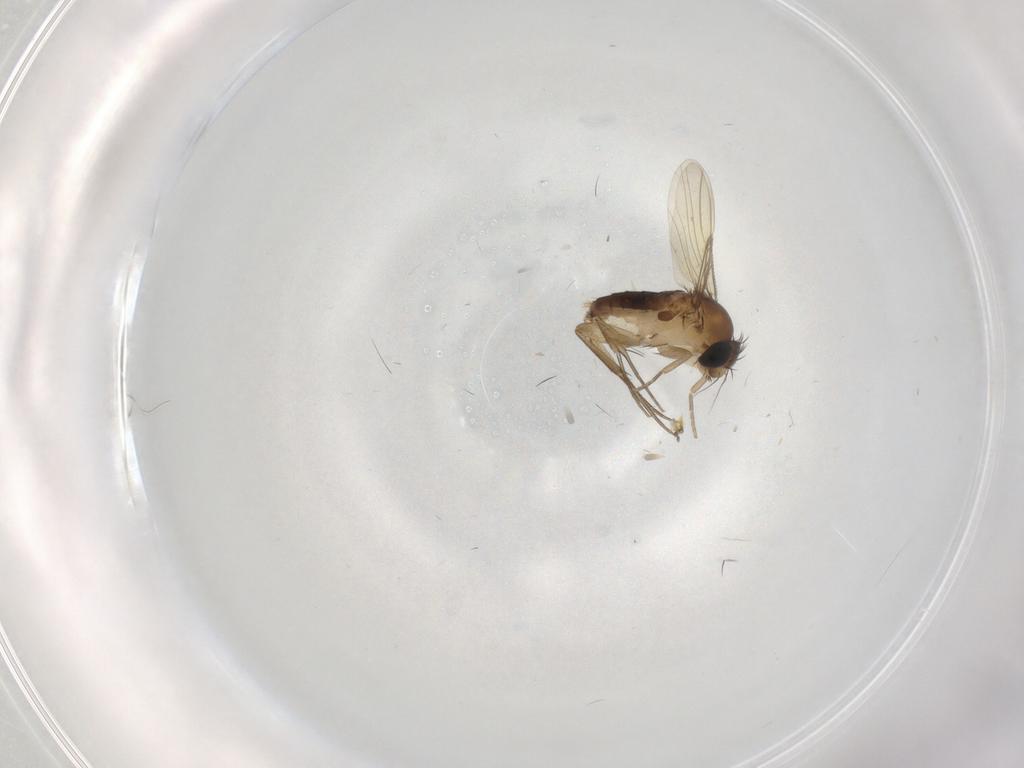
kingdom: Animalia
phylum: Arthropoda
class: Insecta
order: Diptera
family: Phoridae
